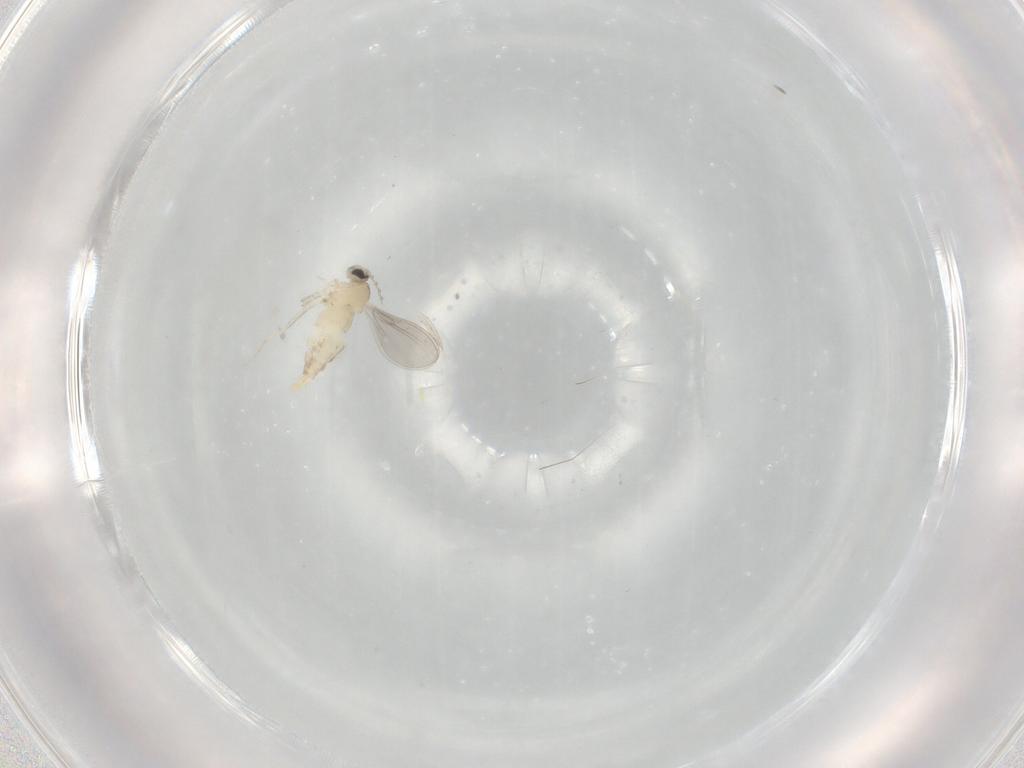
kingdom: Animalia
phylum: Arthropoda
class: Insecta
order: Diptera
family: Cecidomyiidae
